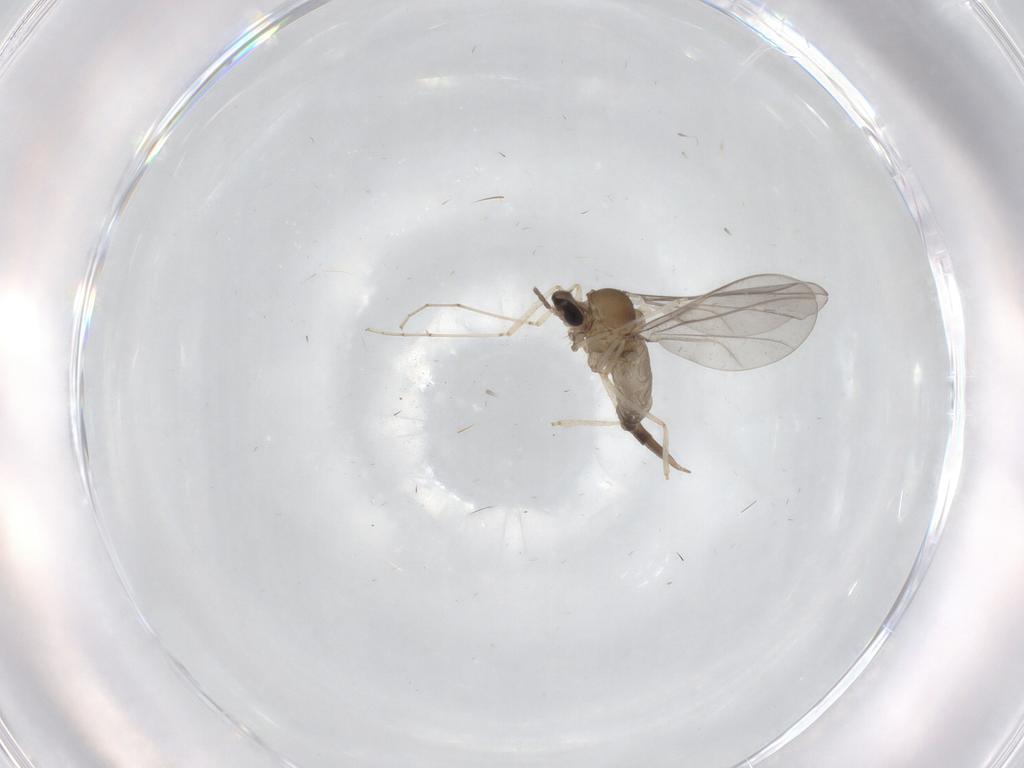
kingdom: Animalia
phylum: Arthropoda
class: Insecta
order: Diptera
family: Cecidomyiidae
